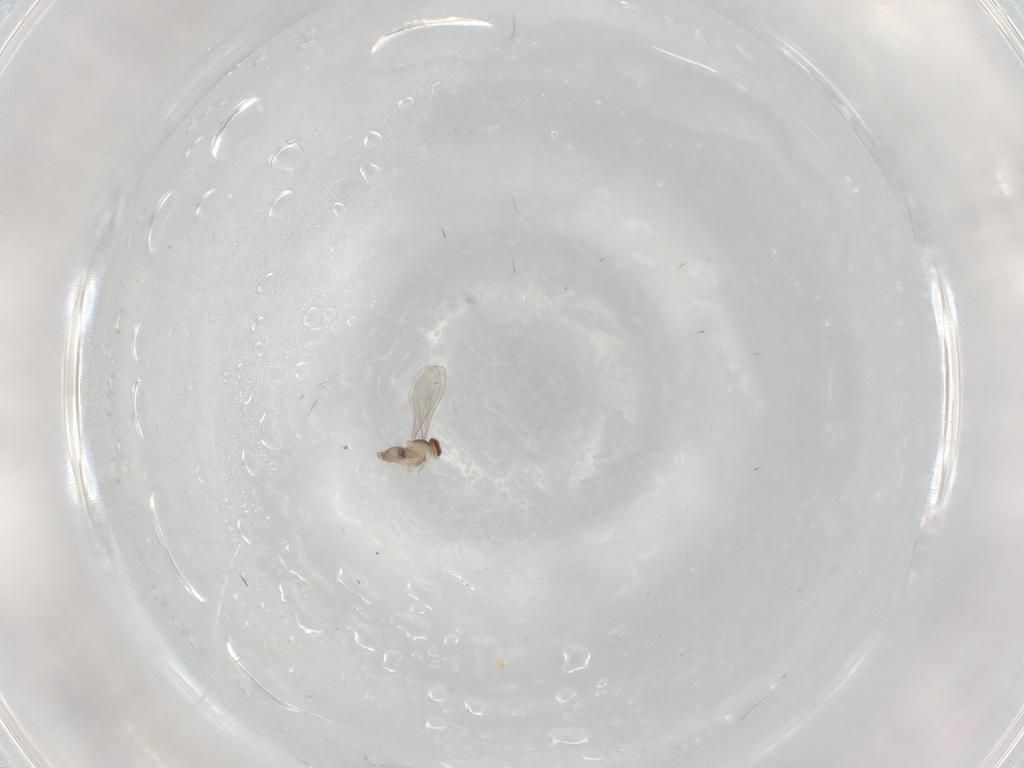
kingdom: Animalia
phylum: Arthropoda
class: Insecta
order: Diptera
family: Cecidomyiidae
